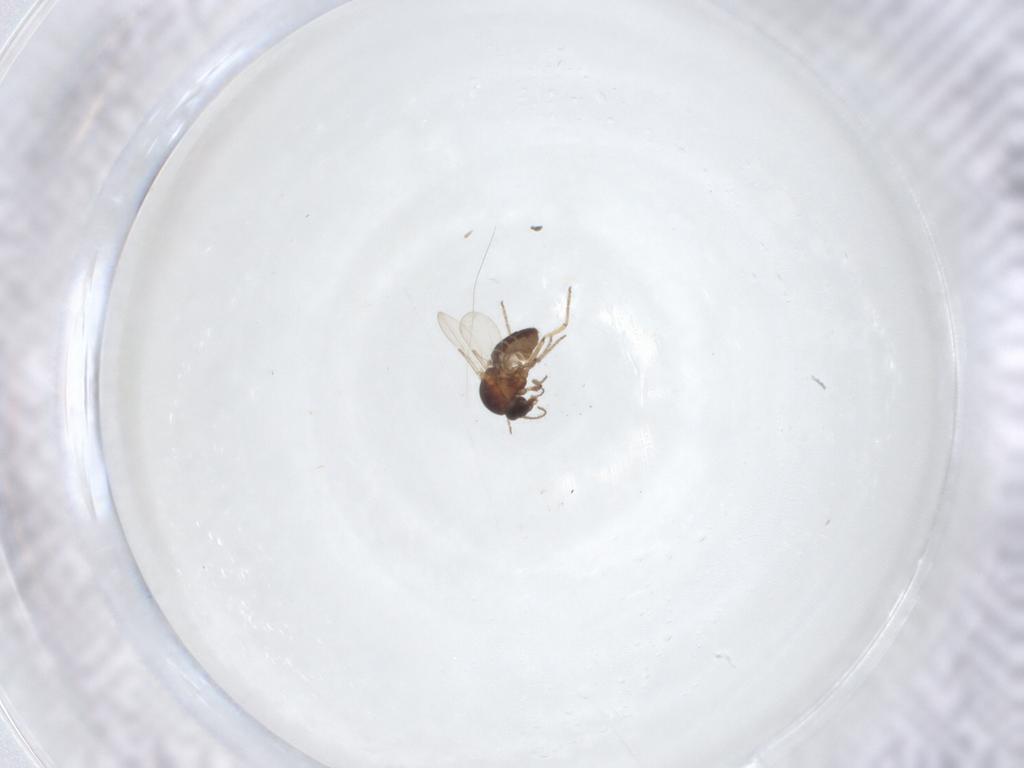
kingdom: Animalia
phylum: Arthropoda
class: Insecta
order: Diptera
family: Ceratopogonidae
